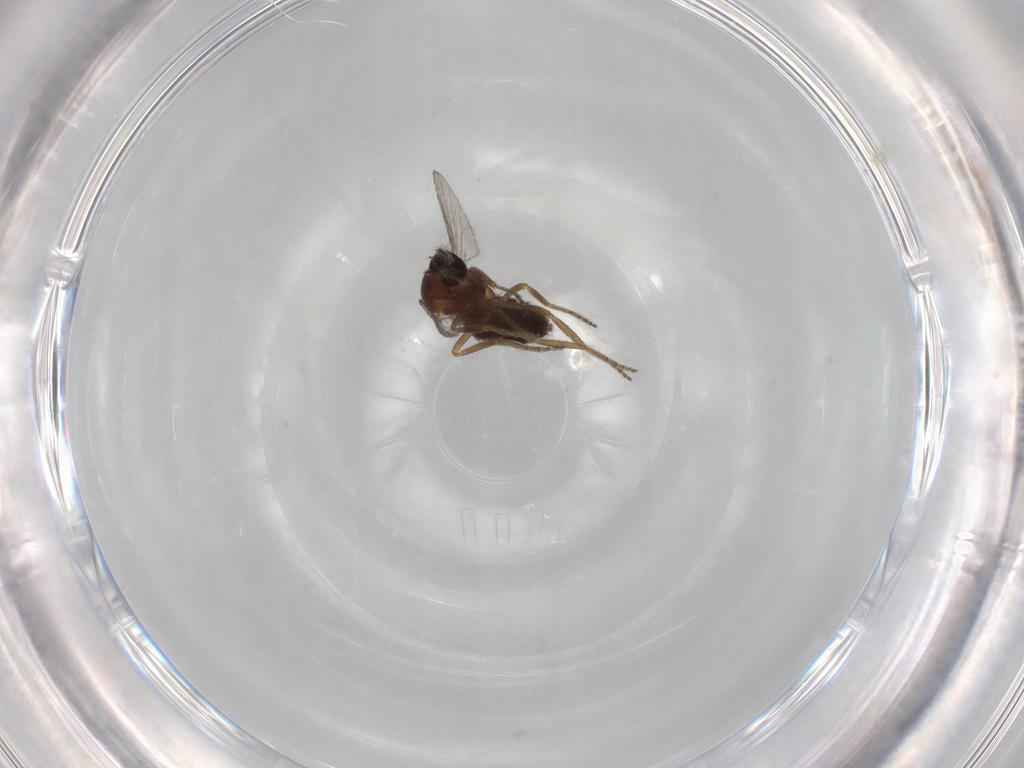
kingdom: Animalia
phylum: Arthropoda
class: Insecta
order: Diptera
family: Ceratopogonidae
